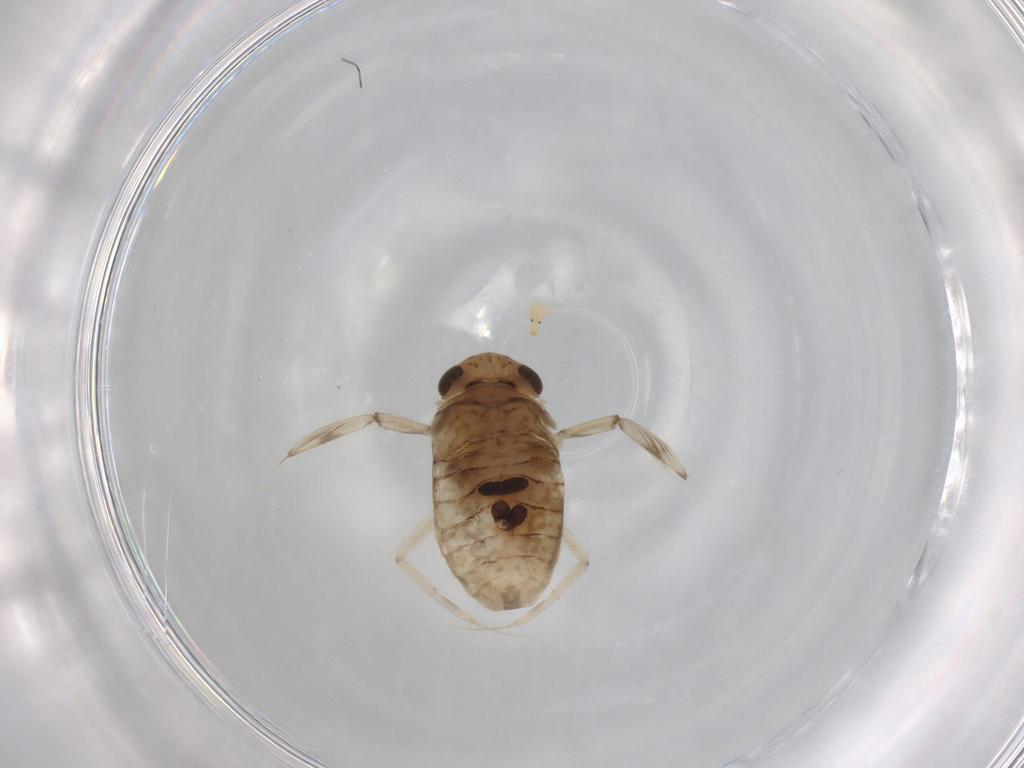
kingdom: Animalia
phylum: Arthropoda
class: Insecta
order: Hemiptera
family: Corixidae
